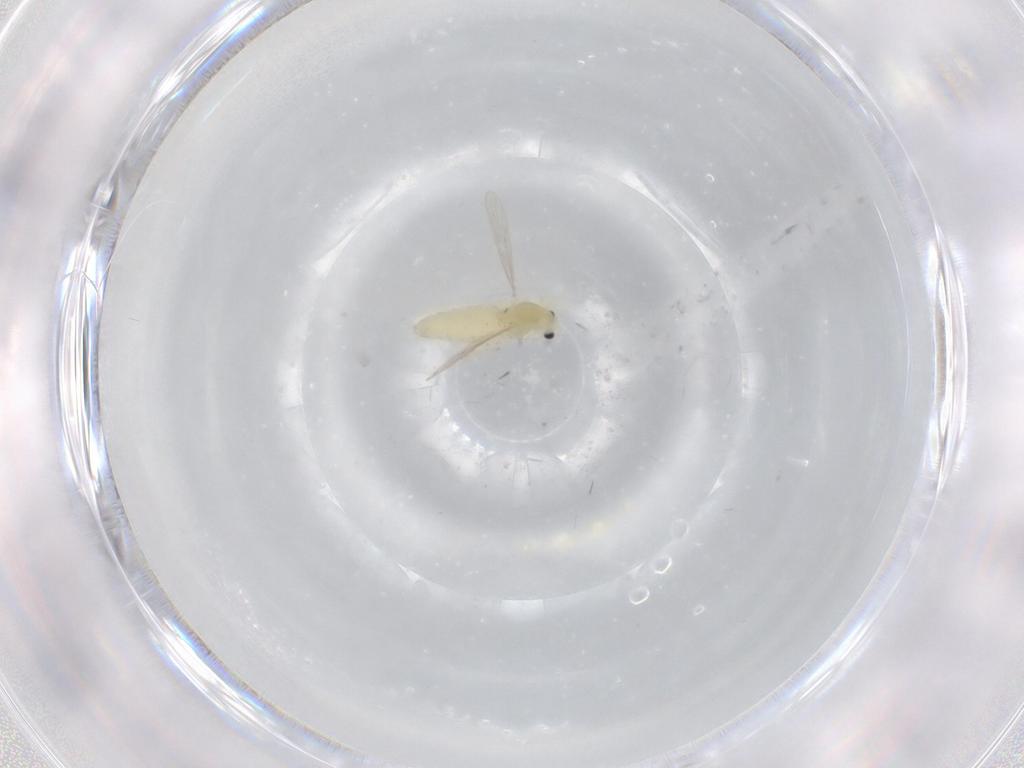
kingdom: Animalia
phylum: Arthropoda
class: Insecta
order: Diptera
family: Chironomidae
